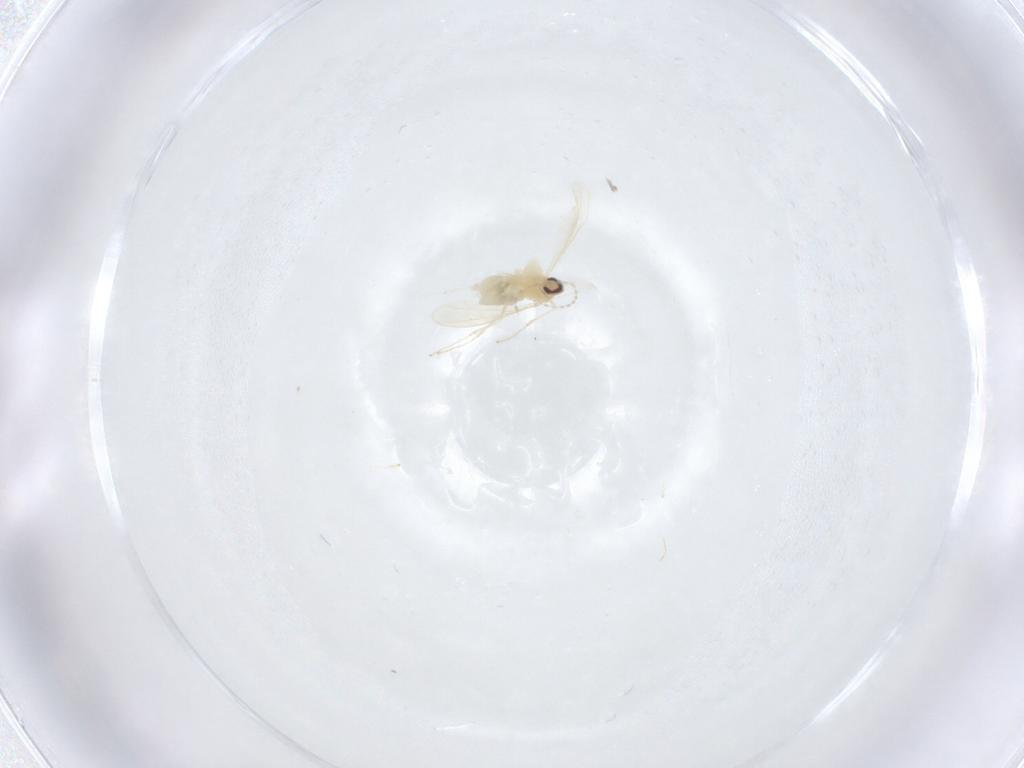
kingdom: Animalia
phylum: Arthropoda
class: Insecta
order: Diptera
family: Cecidomyiidae
